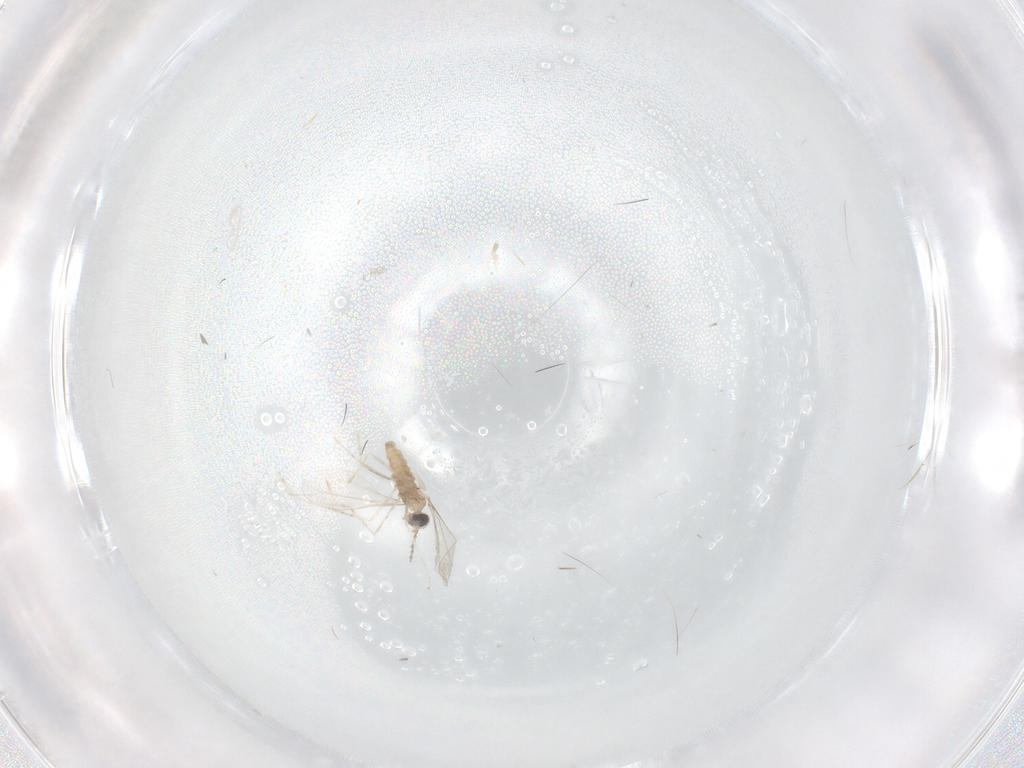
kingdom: Animalia
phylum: Arthropoda
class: Insecta
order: Diptera
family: Cecidomyiidae
